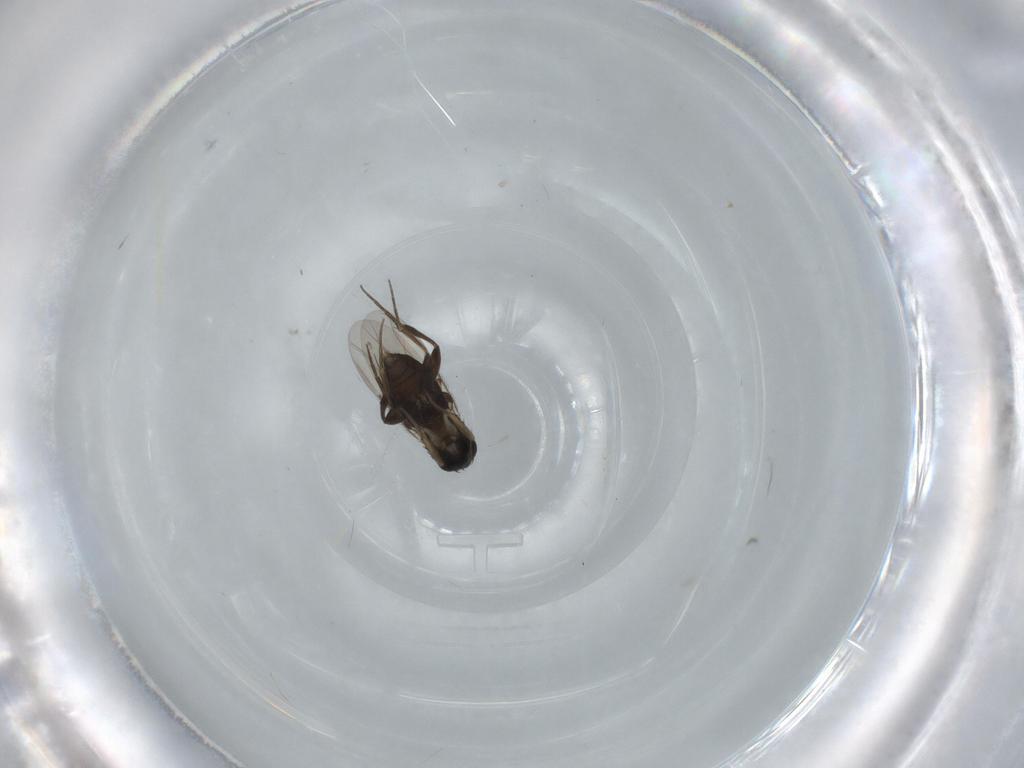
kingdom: Animalia
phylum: Arthropoda
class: Insecta
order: Diptera
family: Phoridae
